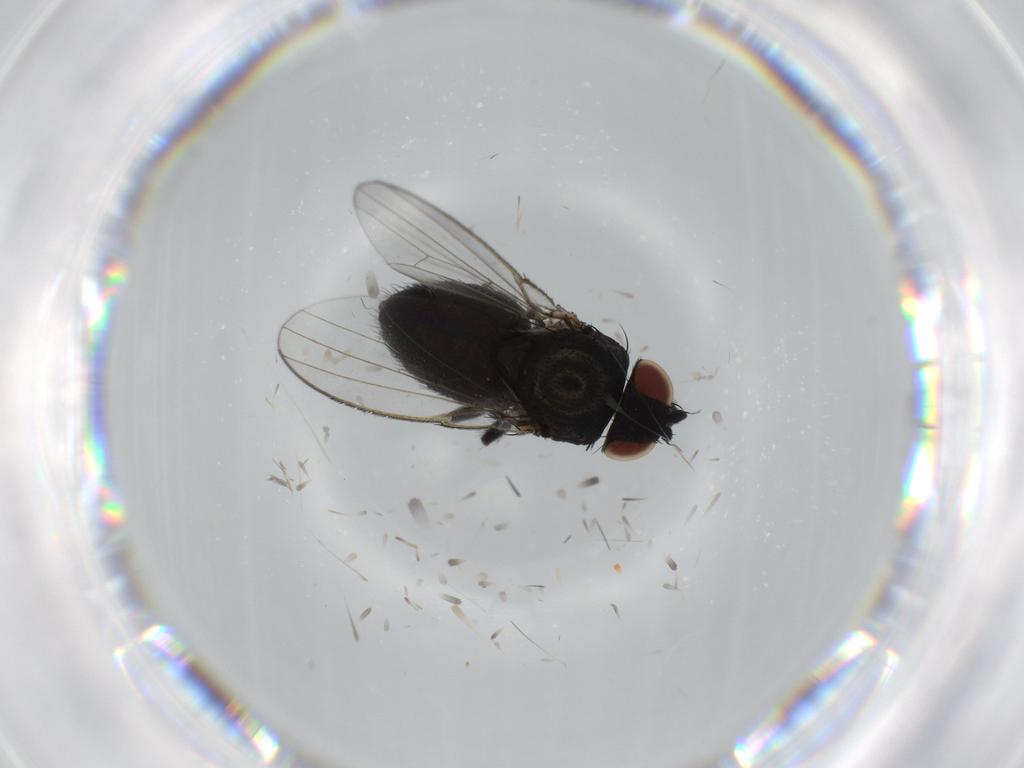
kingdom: Animalia
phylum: Arthropoda
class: Insecta
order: Diptera
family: Milichiidae
